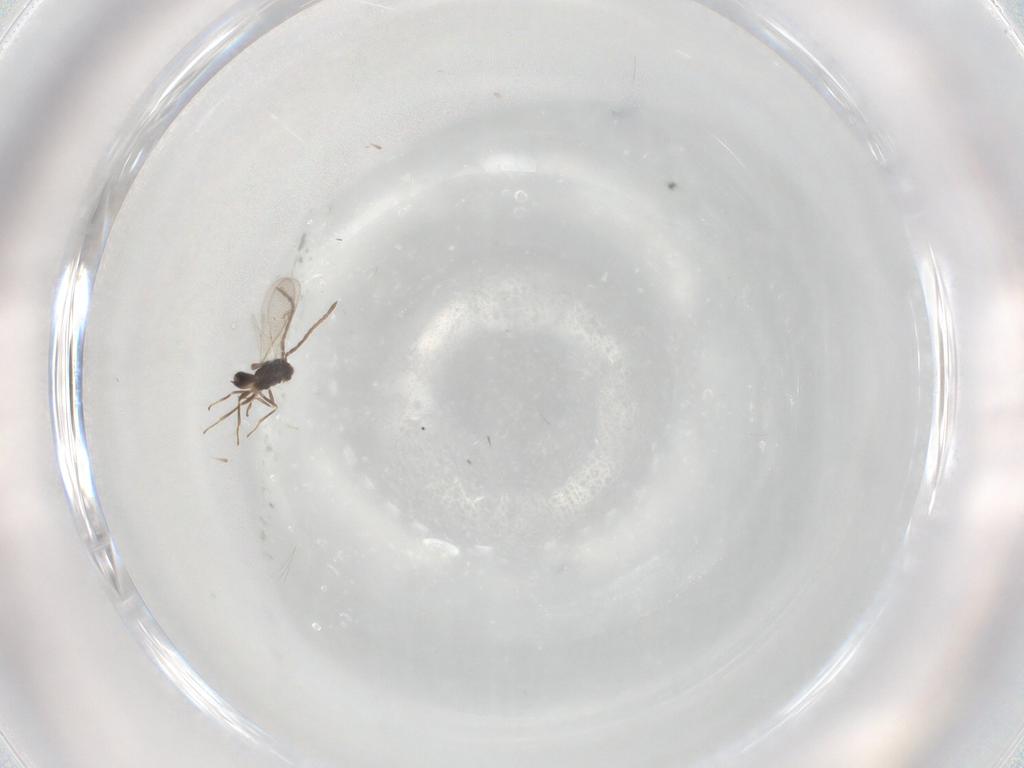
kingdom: Animalia
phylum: Arthropoda
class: Insecta
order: Hymenoptera
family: Eupelmidae
